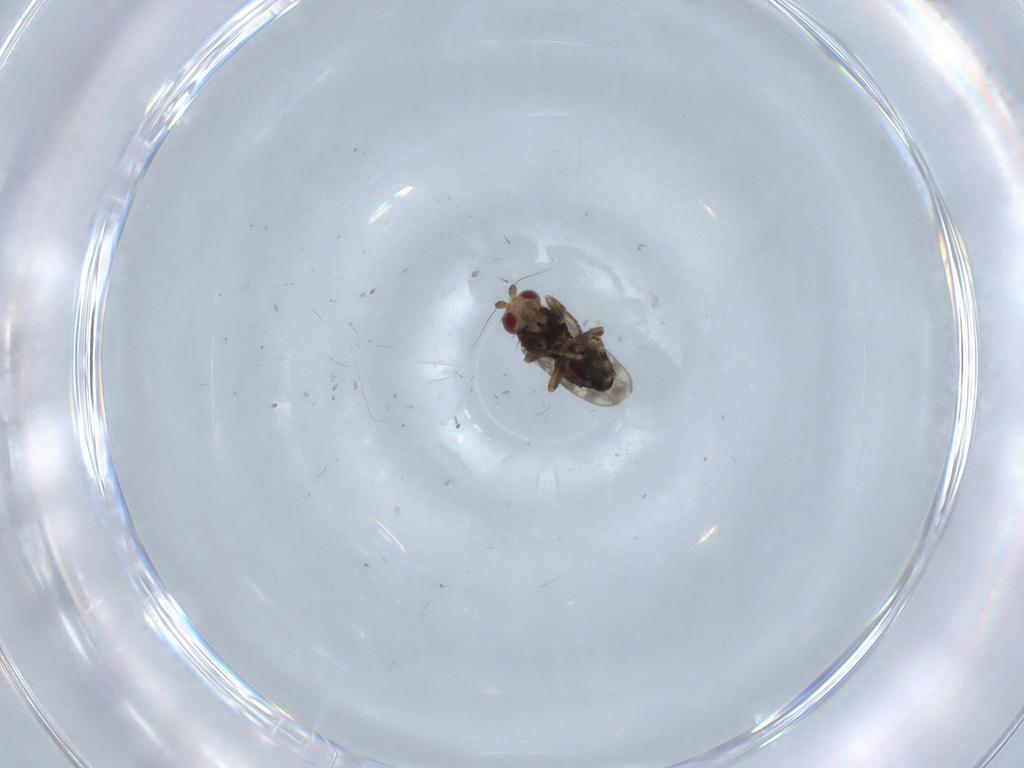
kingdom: Animalia
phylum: Arthropoda
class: Insecta
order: Diptera
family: Sphaeroceridae
